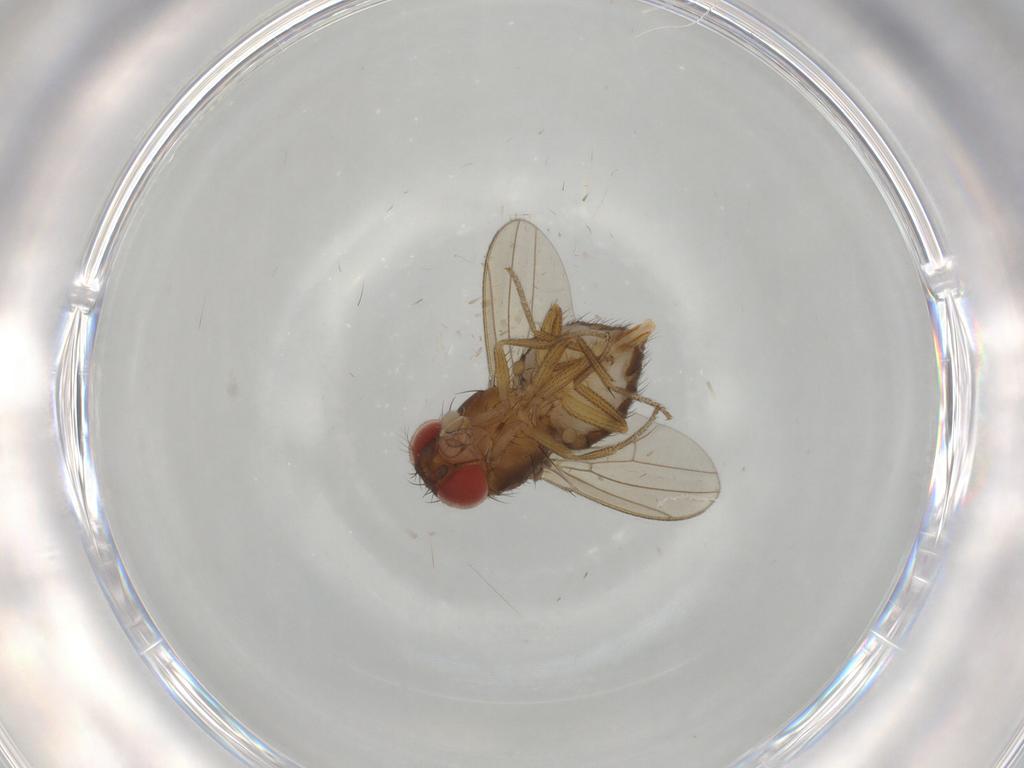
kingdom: Animalia
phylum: Arthropoda
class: Insecta
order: Diptera
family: Drosophilidae
